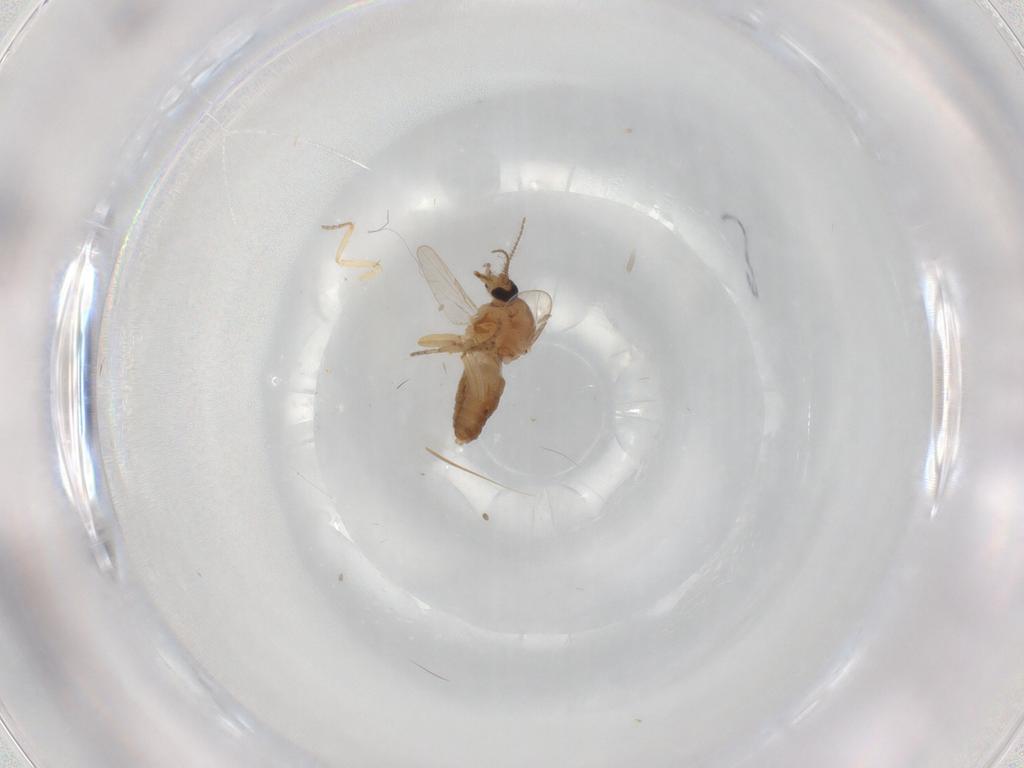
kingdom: Animalia
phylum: Arthropoda
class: Insecta
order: Diptera
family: Ceratopogonidae
